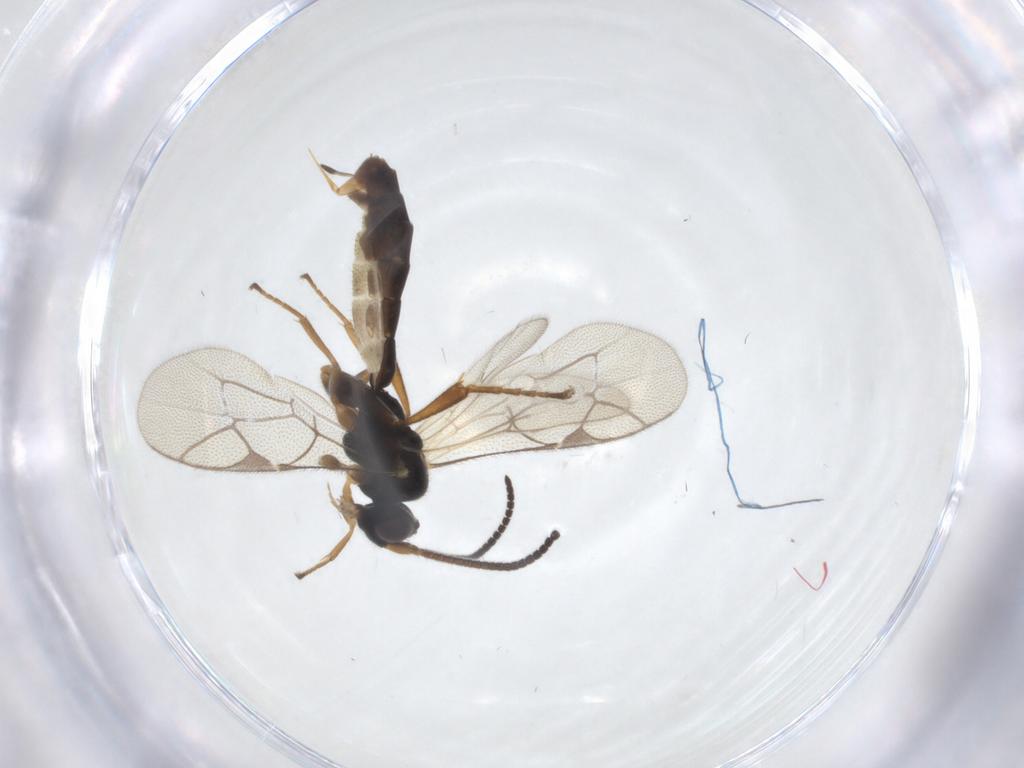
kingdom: Animalia
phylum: Arthropoda
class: Insecta
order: Hymenoptera
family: Ichneumonidae
